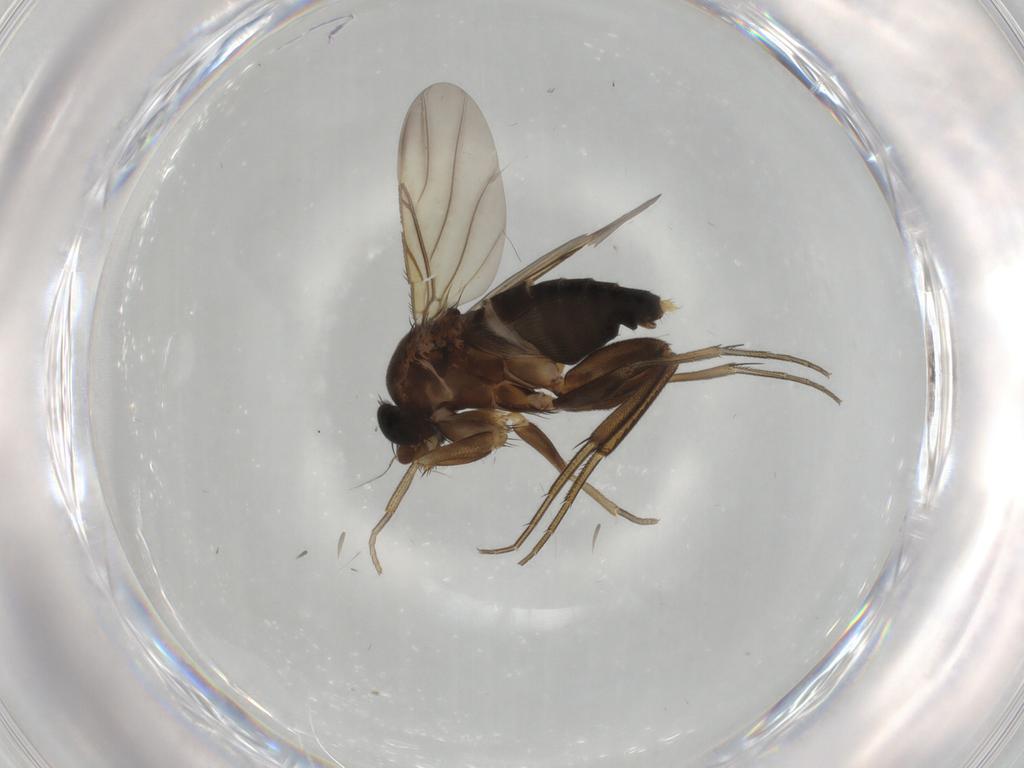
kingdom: Animalia
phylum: Arthropoda
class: Insecta
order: Diptera
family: Phoridae
